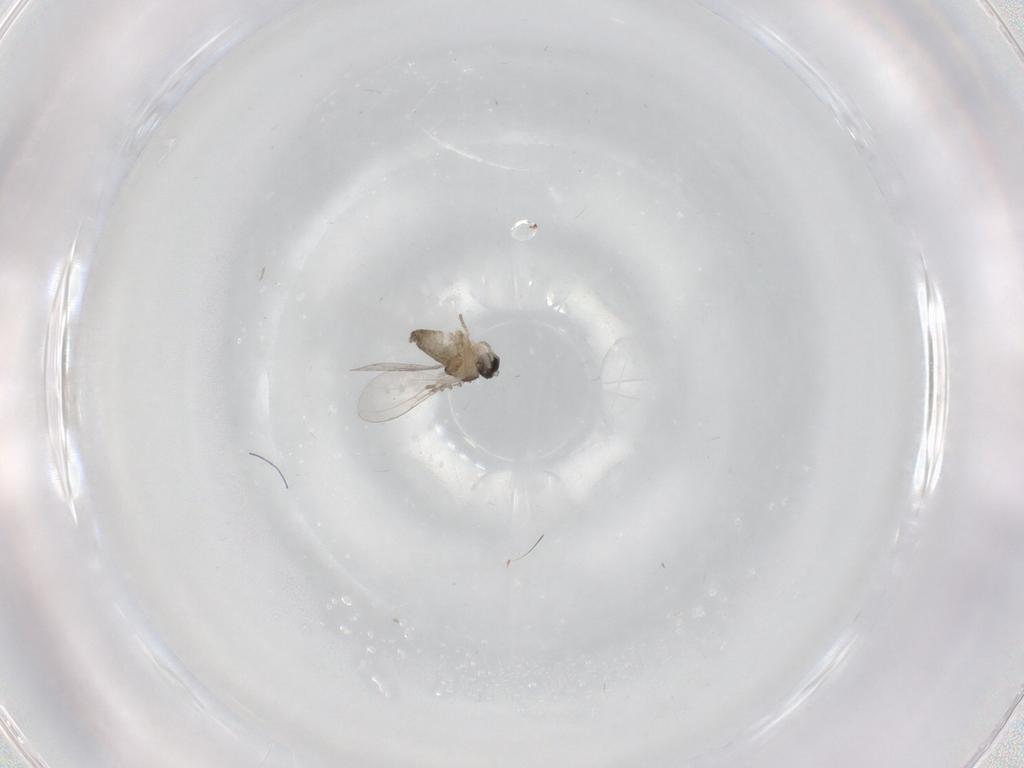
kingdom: Animalia
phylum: Arthropoda
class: Insecta
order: Diptera
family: Cecidomyiidae
